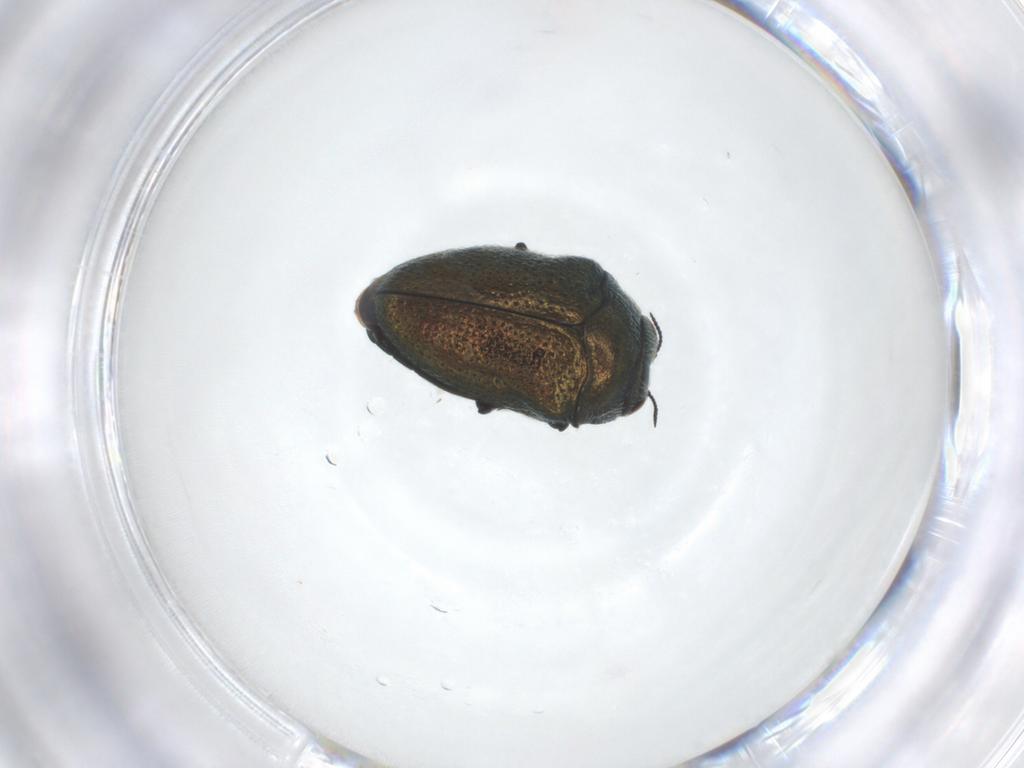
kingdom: Animalia
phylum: Arthropoda
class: Insecta
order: Coleoptera
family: Buprestidae
